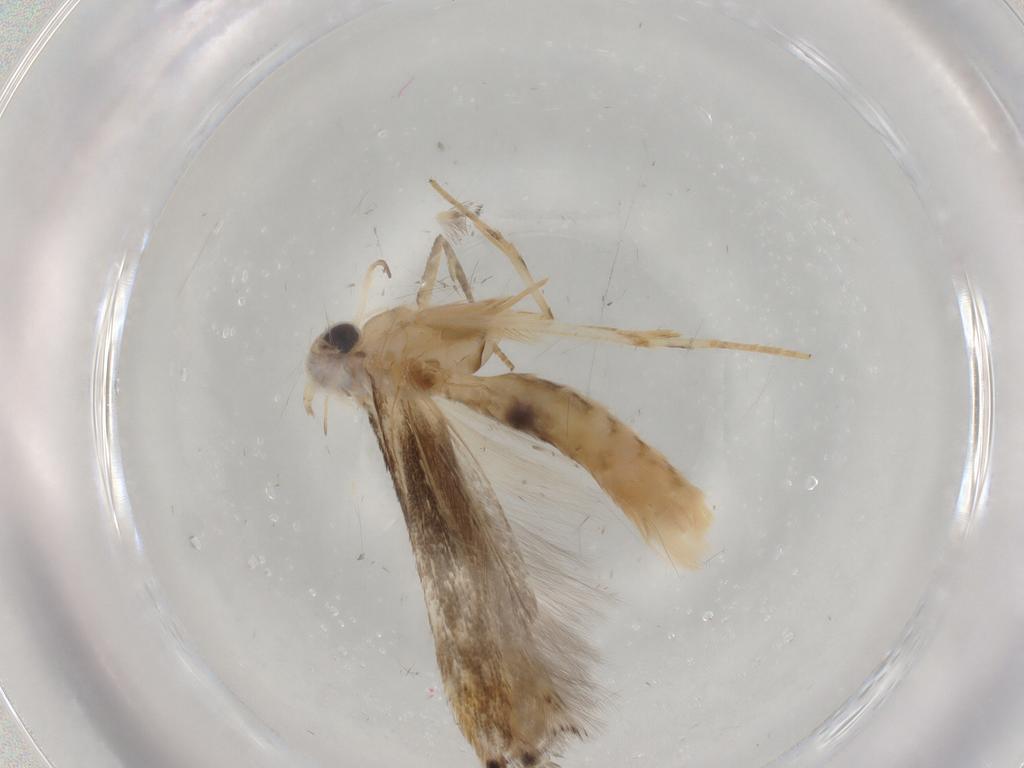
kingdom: Animalia
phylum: Arthropoda
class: Insecta
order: Lepidoptera
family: Gelechiidae
